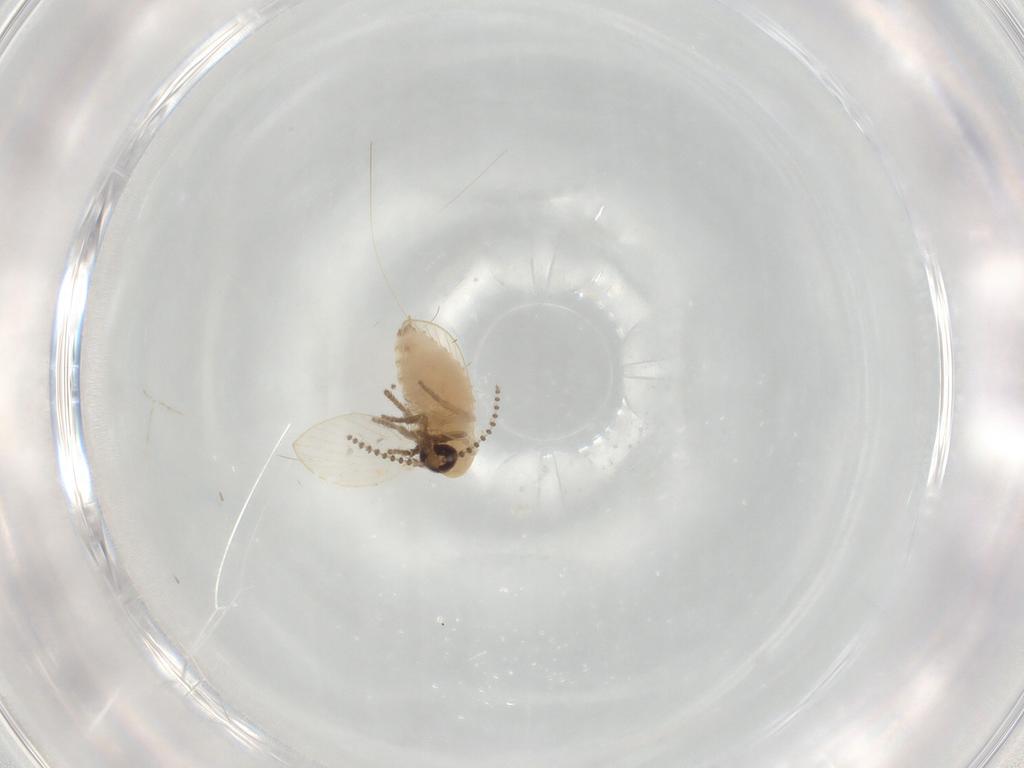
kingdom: Animalia
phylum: Arthropoda
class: Insecta
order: Diptera
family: Psychodidae
